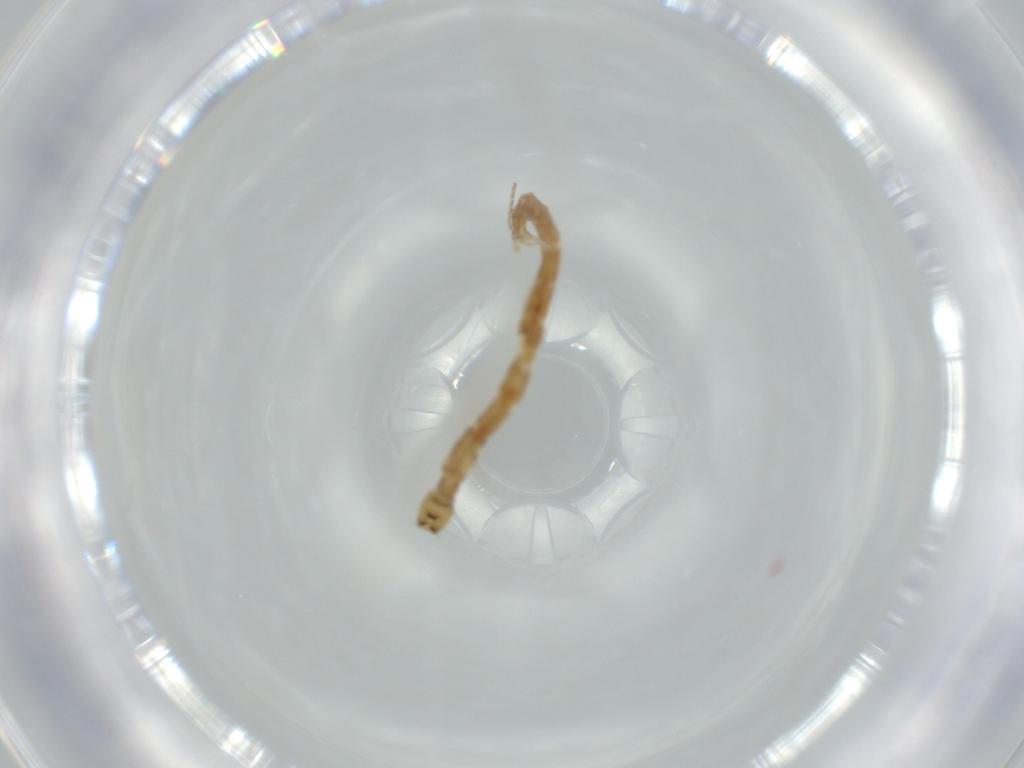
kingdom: Animalia
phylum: Arthropoda
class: Insecta
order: Diptera
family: Chironomidae
